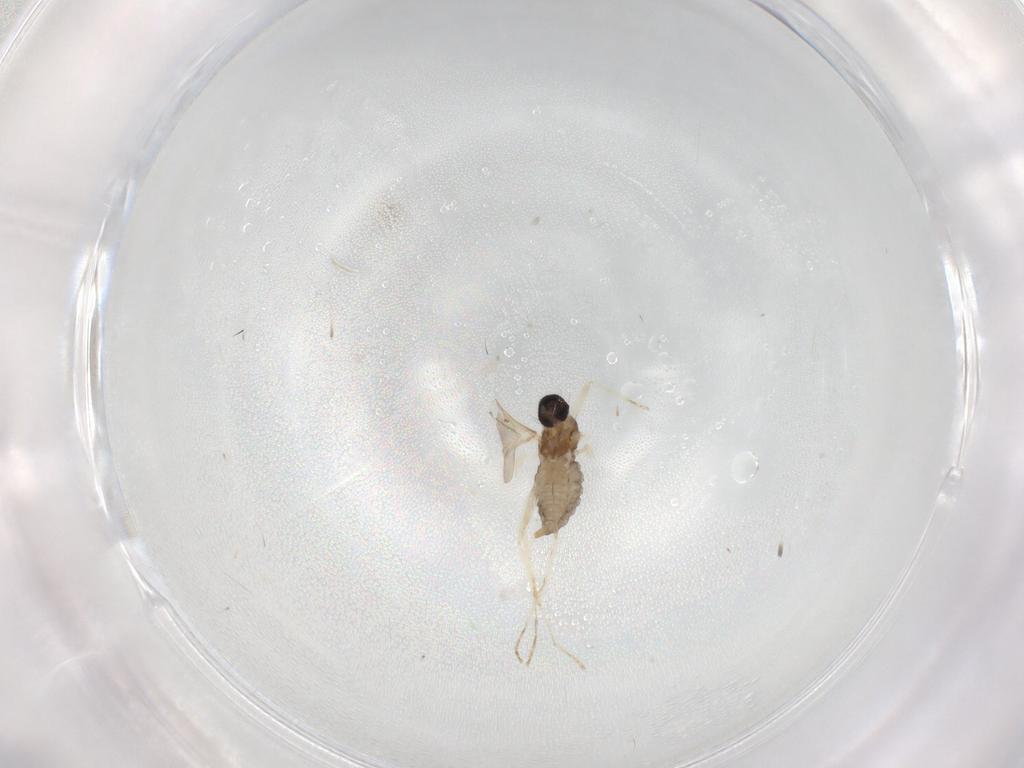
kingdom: Animalia
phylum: Arthropoda
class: Insecta
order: Diptera
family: Cecidomyiidae
